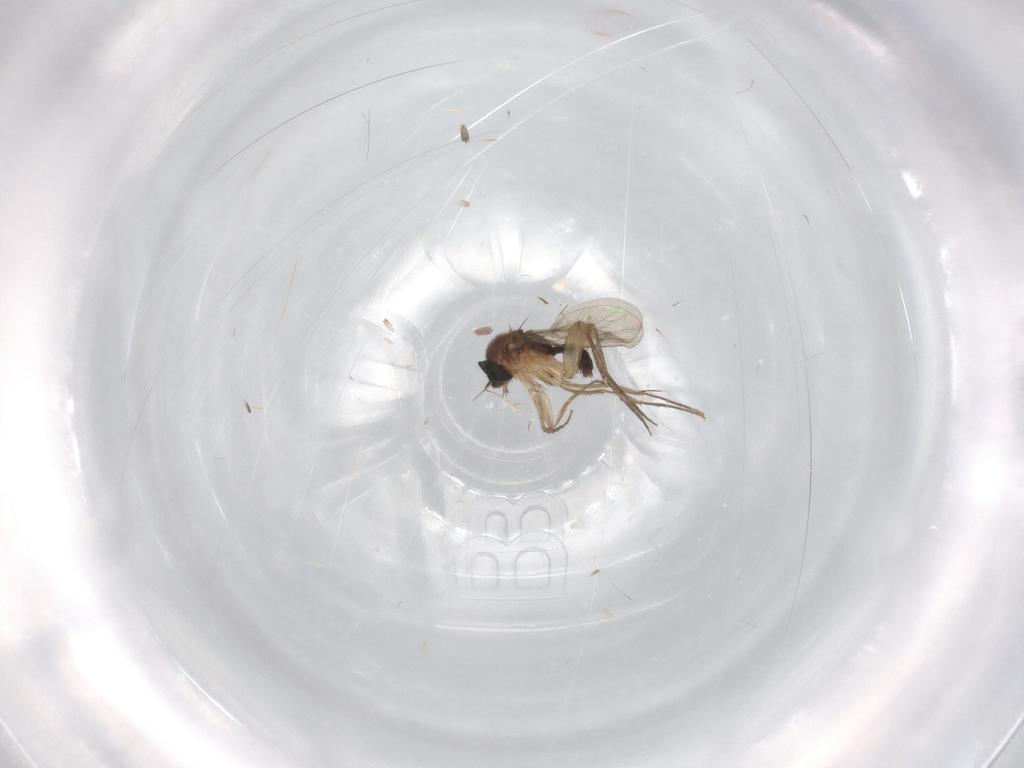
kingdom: Animalia
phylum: Arthropoda
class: Insecta
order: Diptera
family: Phoridae
